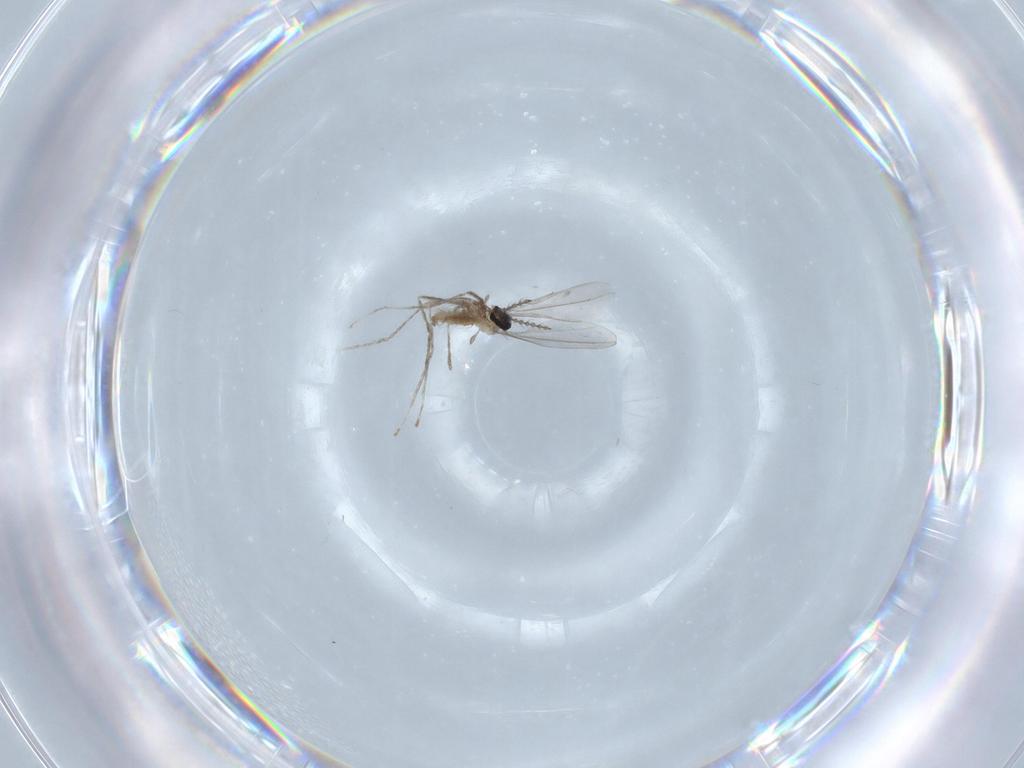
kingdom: Animalia
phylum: Arthropoda
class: Insecta
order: Diptera
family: Cecidomyiidae
